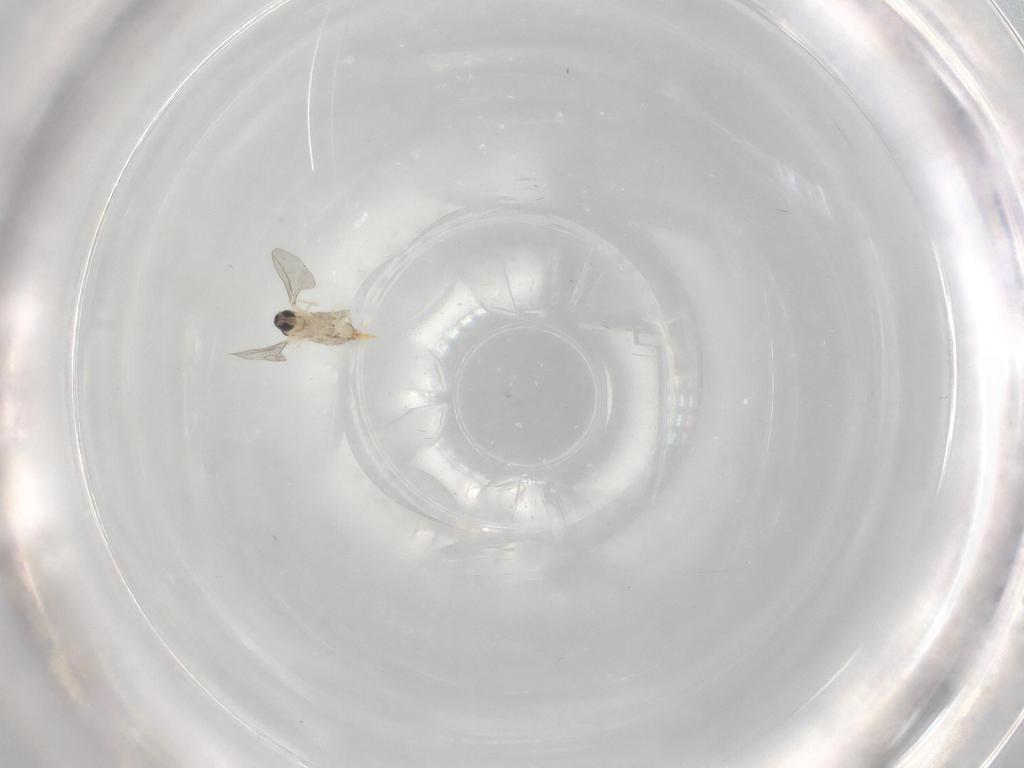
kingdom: Animalia
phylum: Arthropoda
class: Insecta
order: Diptera
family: Cecidomyiidae
